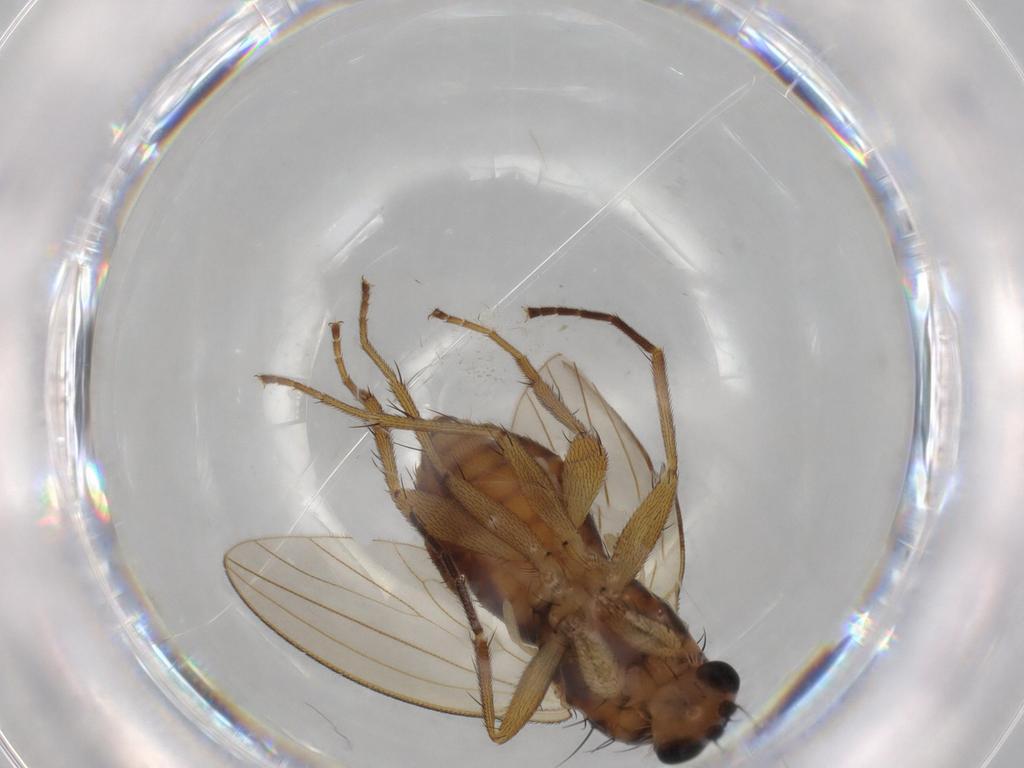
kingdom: Animalia
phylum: Arthropoda
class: Insecta
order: Diptera
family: Lonchopteridae
